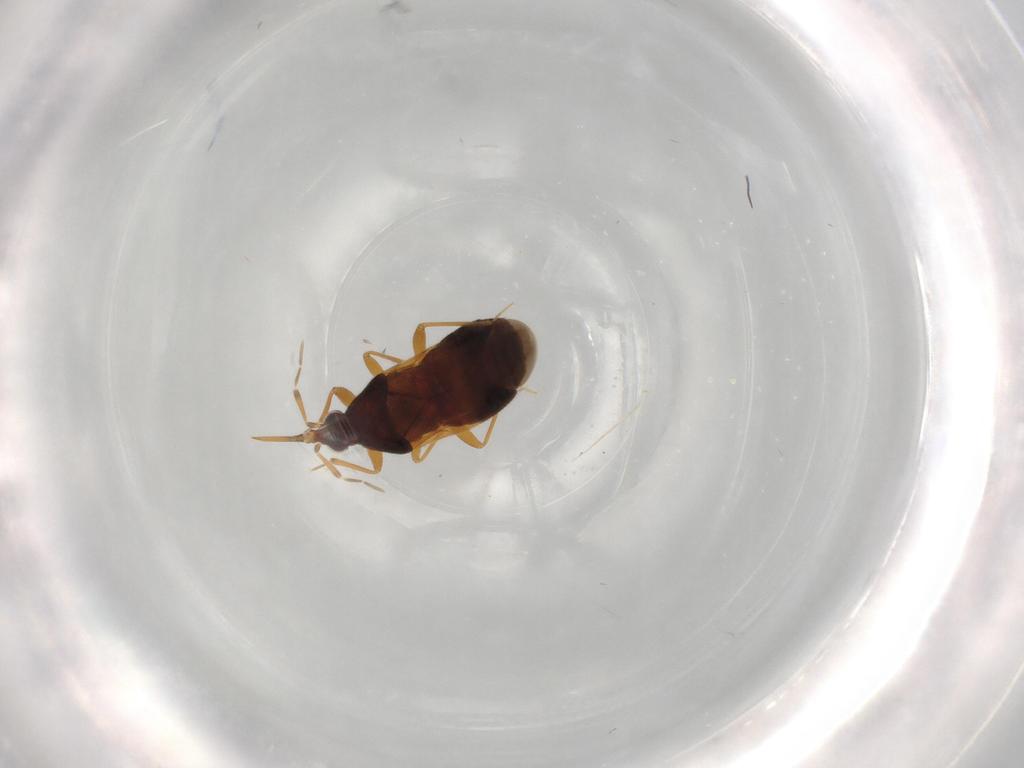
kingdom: Animalia
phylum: Arthropoda
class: Insecta
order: Hemiptera
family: Anthocoridae
